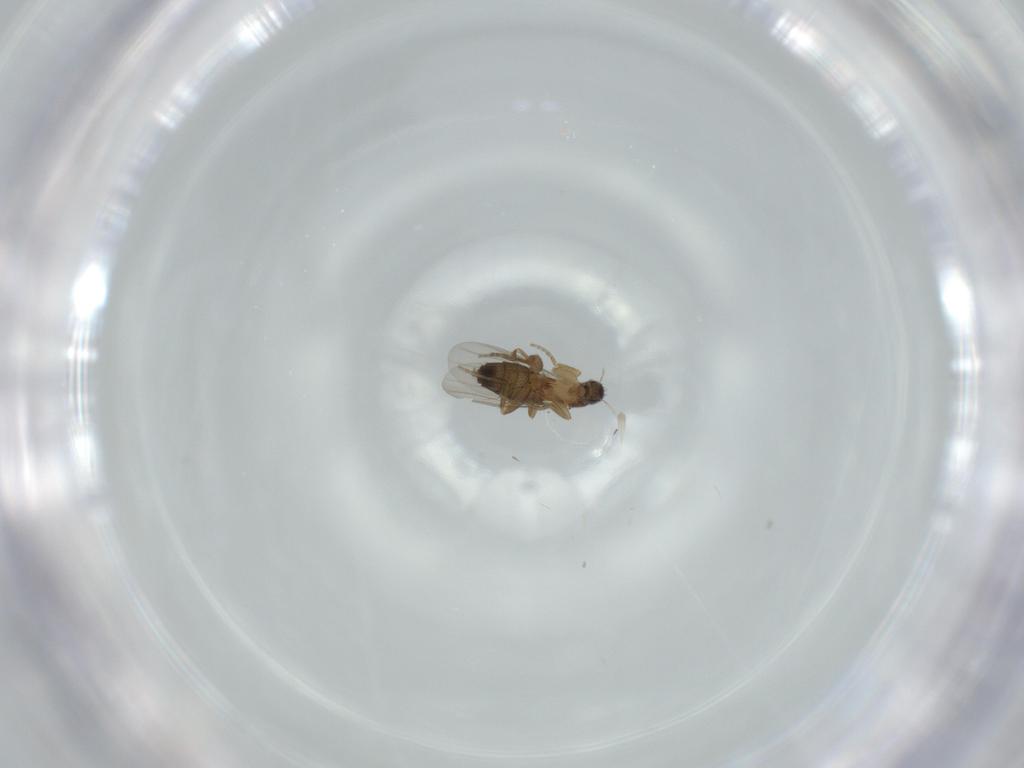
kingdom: Animalia
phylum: Arthropoda
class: Insecta
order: Diptera
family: Phoridae
